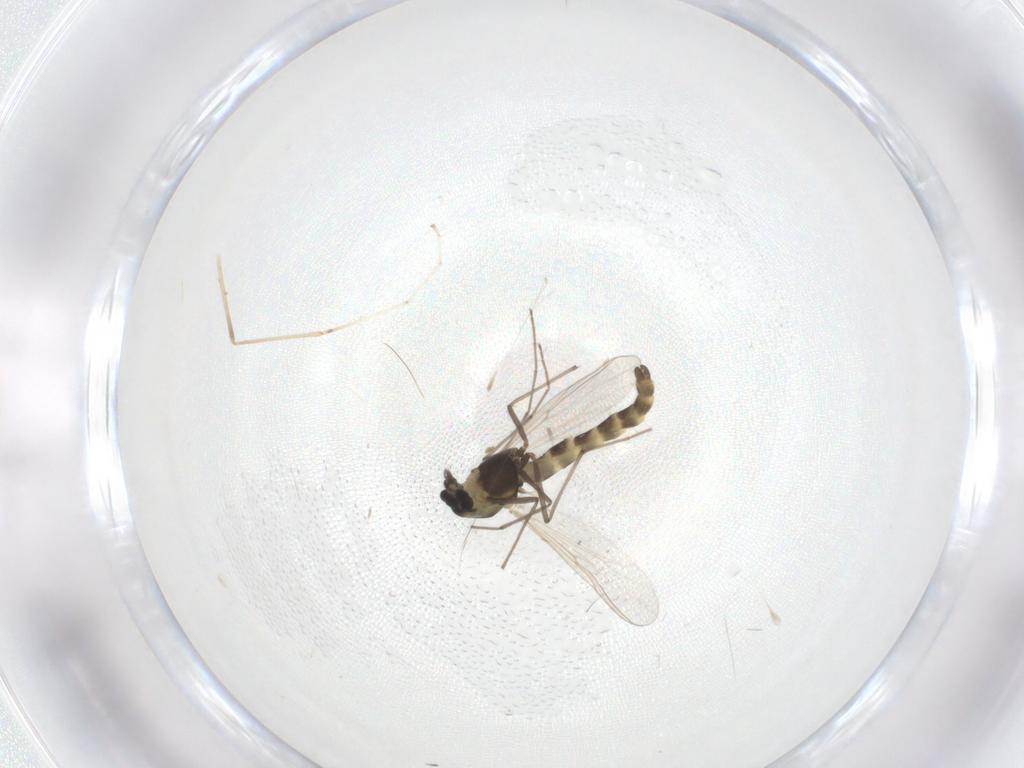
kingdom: Animalia
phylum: Arthropoda
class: Insecta
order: Diptera
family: Chironomidae
